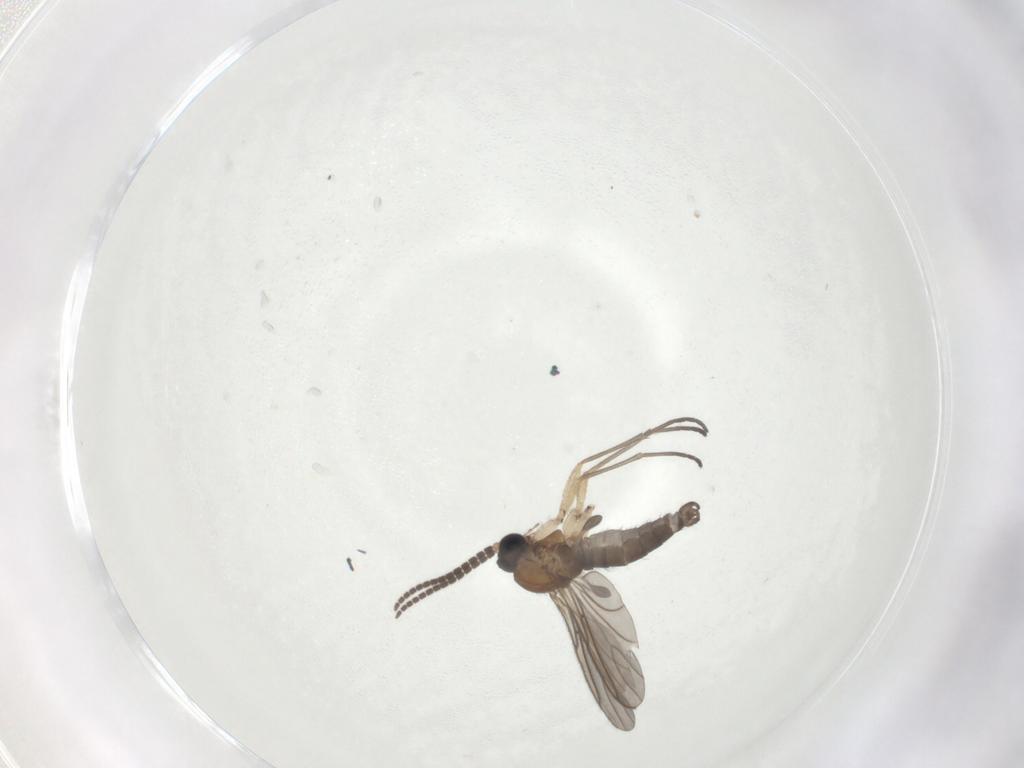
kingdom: Animalia
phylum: Arthropoda
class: Insecta
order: Diptera
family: Sciaridae
